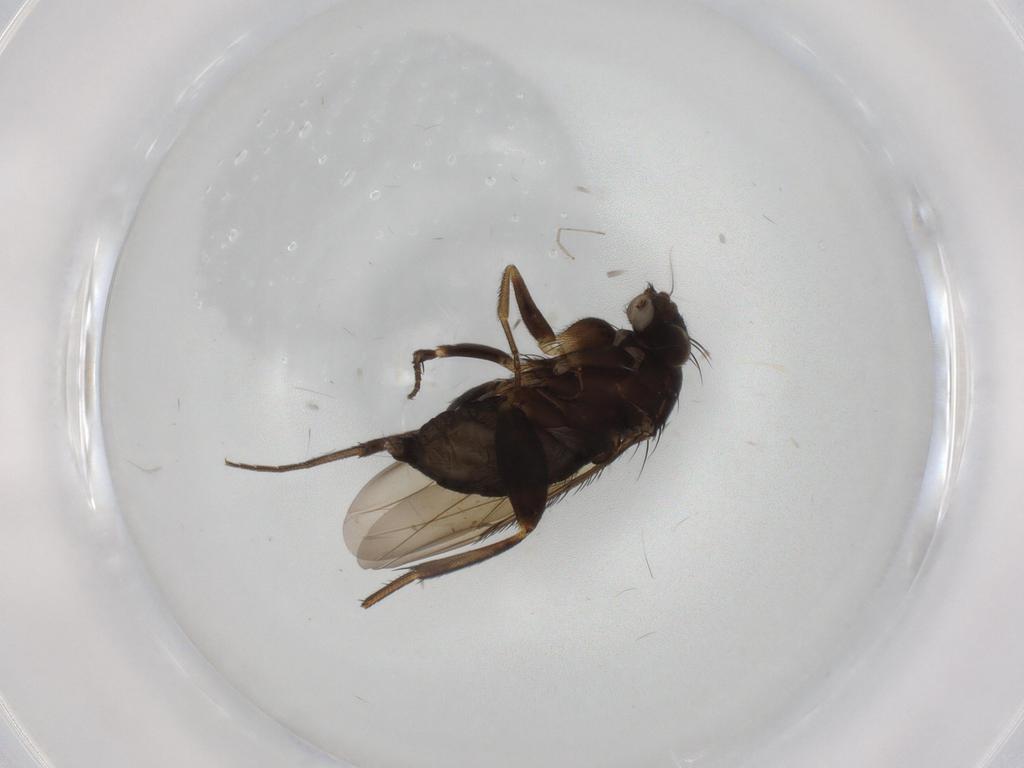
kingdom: Animalia
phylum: Arthropoda
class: Insecta
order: Diptera
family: Phoridae
